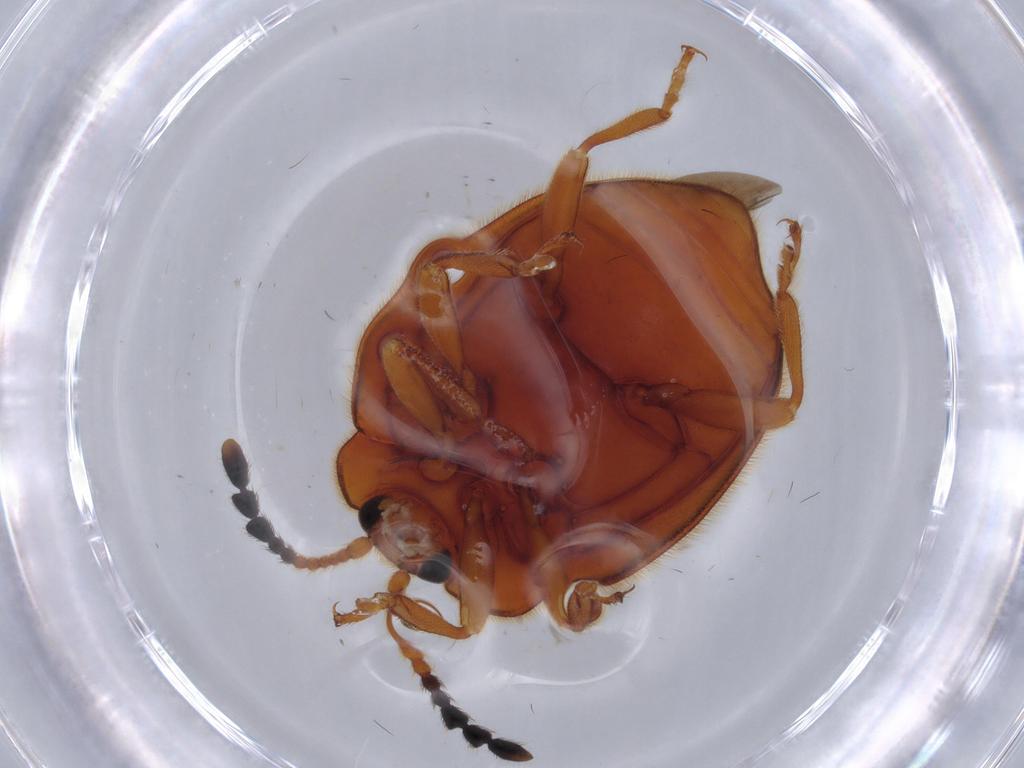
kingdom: Animalia
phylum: Arthropoda
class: Insecta
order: Coleoptera
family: Endomychidae
